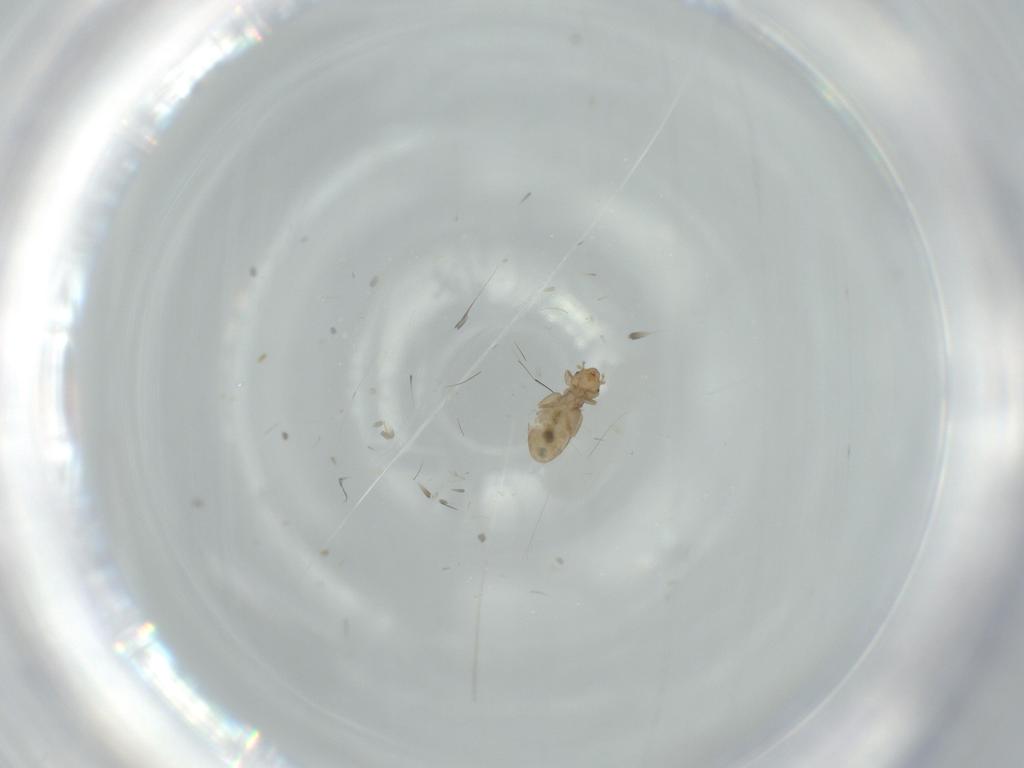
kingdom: Animalia
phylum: Arthropoda
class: Insecta
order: Psocodea
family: Liposcelididae
